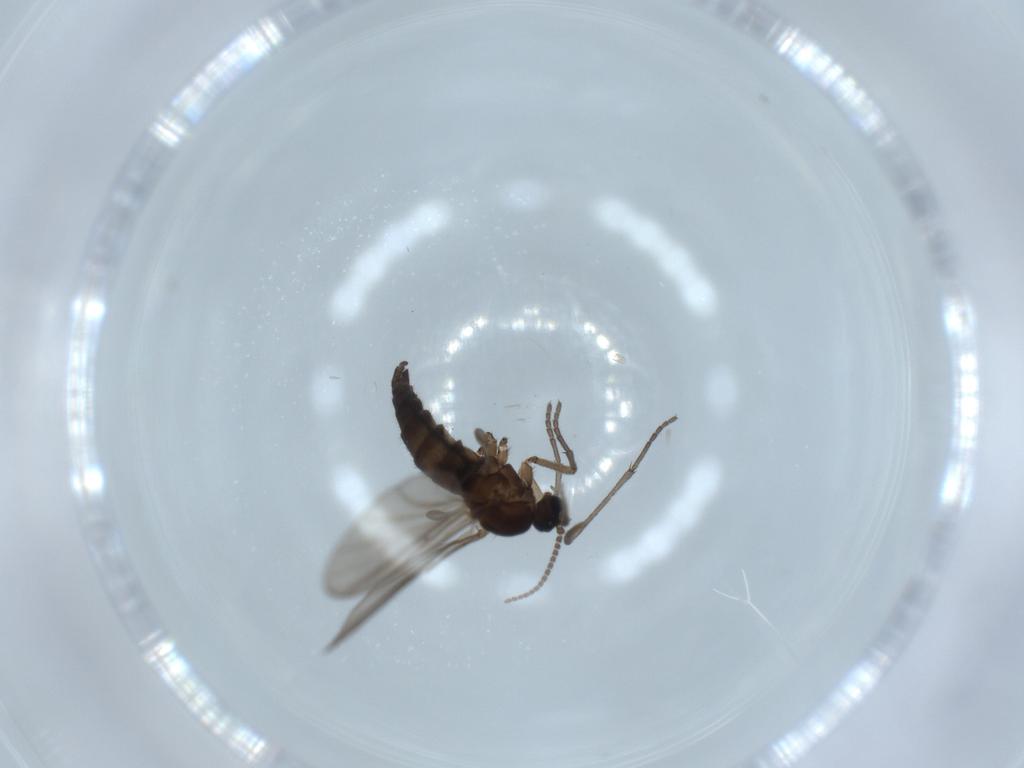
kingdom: Animalia
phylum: Arthropoda
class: Insecta
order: Diptera
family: Sciaridae
